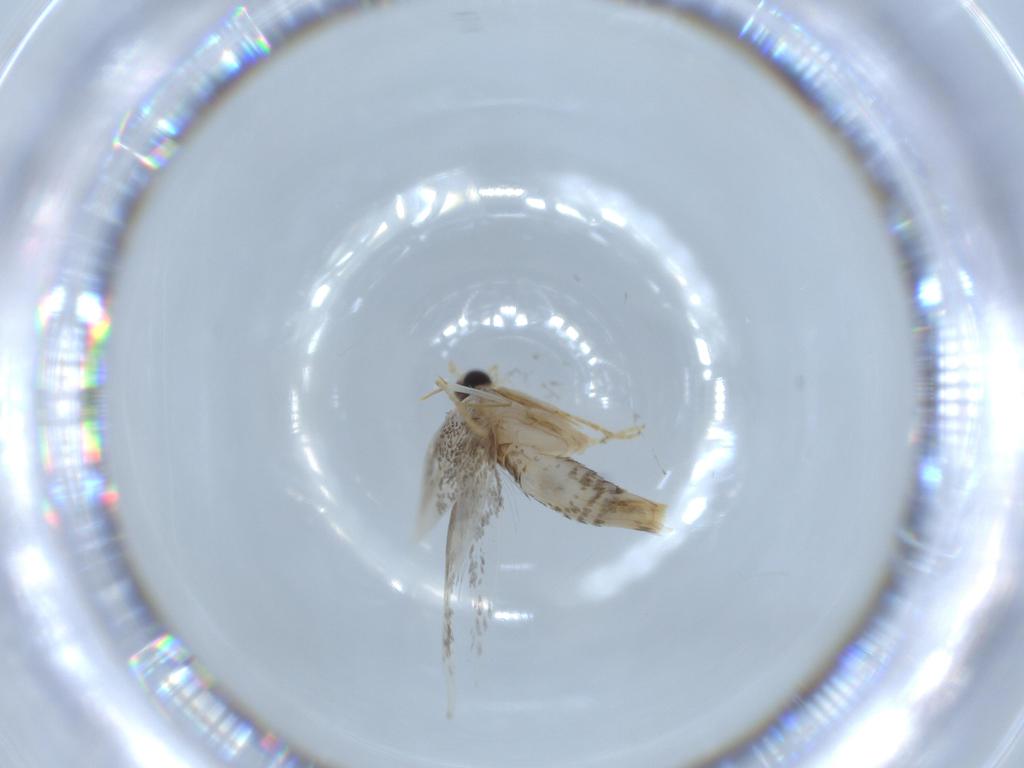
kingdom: Animalia
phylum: Arthropoda
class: Insecta
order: Lepidoptera
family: Tineidae
